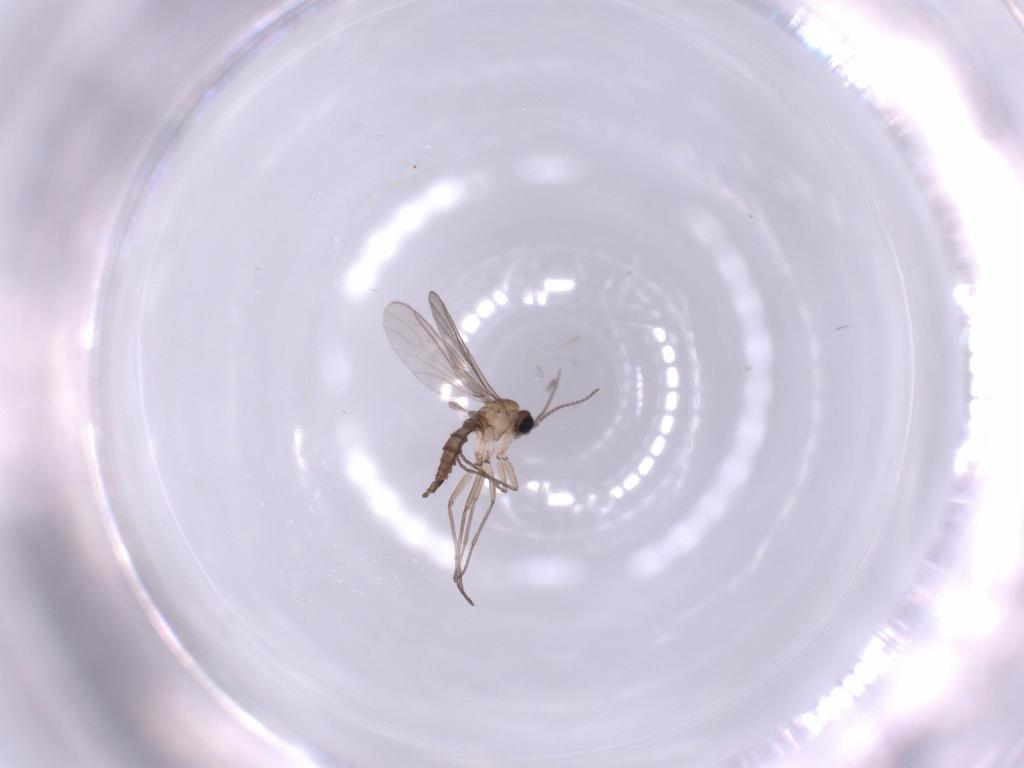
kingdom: Animalia
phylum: Arthropoda
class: Insecta
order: Diptera
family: Sciaridae
